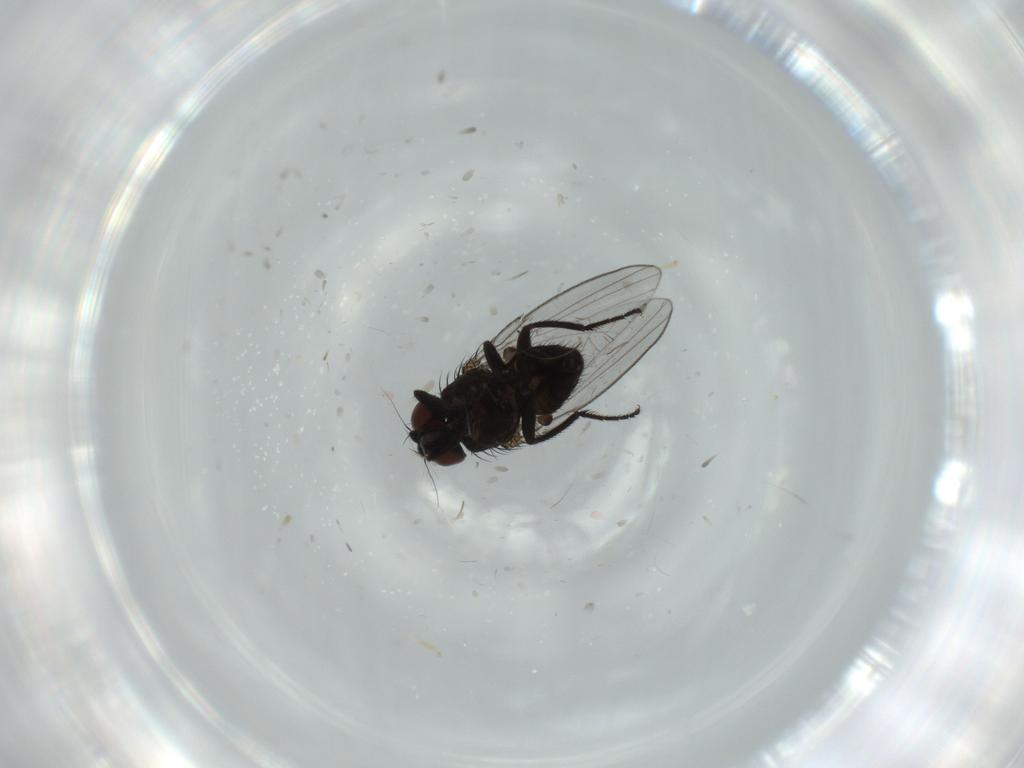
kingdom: Animalia
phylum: Arthropoda
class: Insecta
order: Diptera
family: Milichiidae
